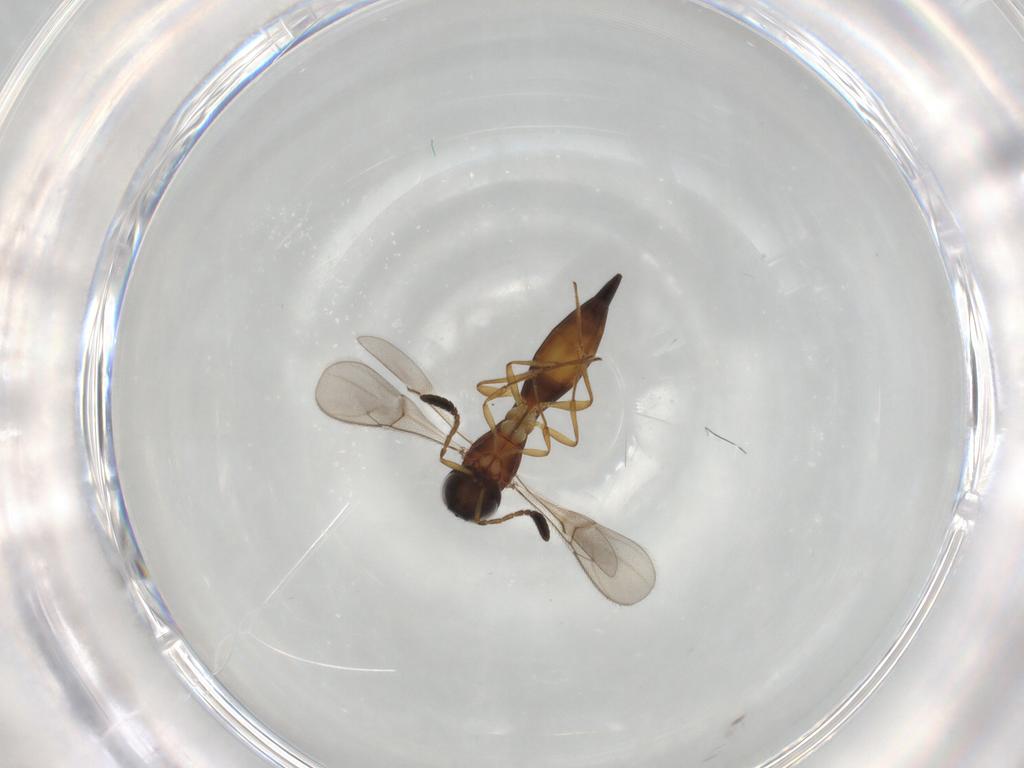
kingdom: Animalia
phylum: Arthropoda
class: Insecta
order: Hymenoptera
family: Scelionidae
